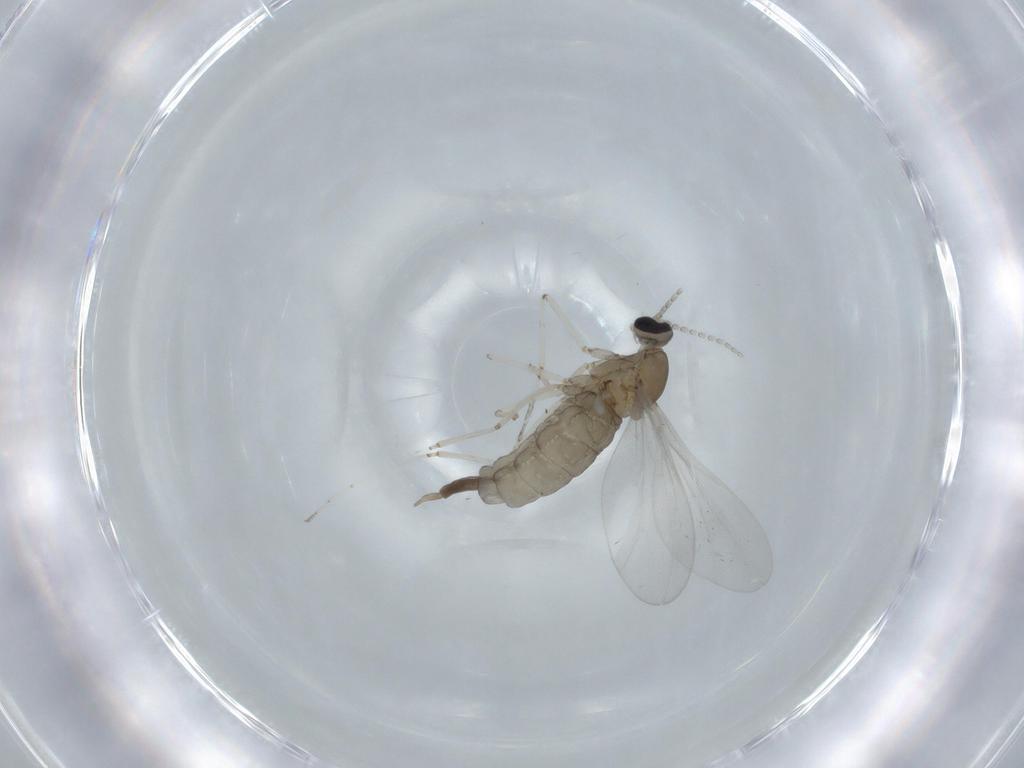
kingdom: Animalia
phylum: Arthropoda
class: Insecta
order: Diptera
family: Cecidomyiidae
